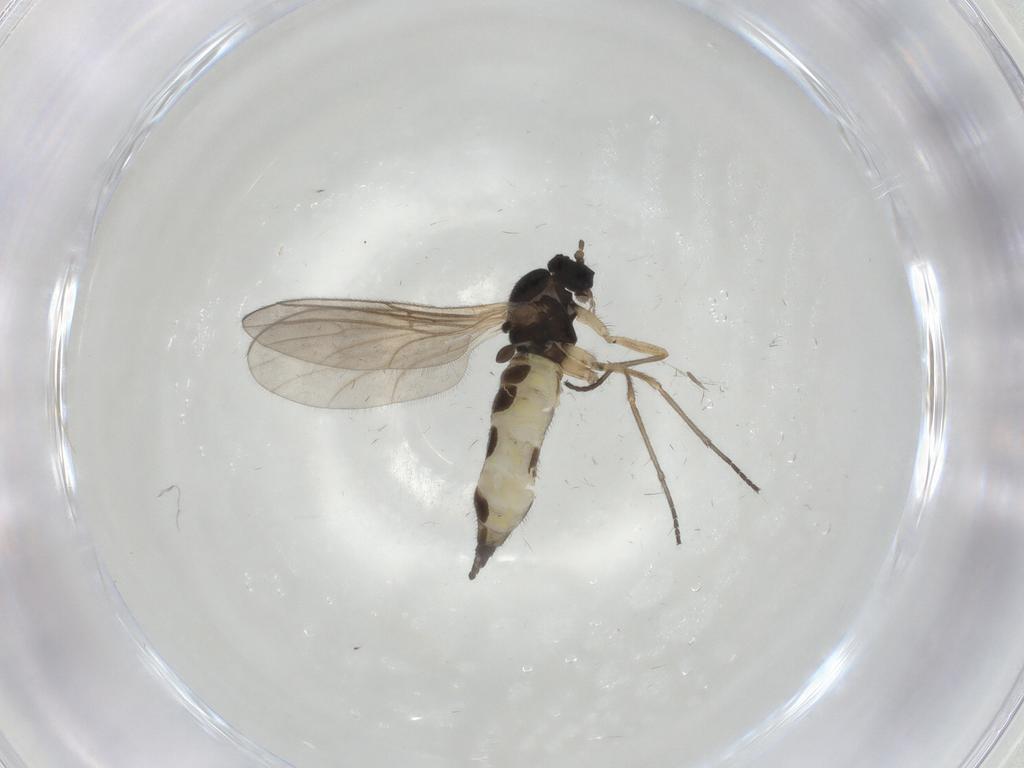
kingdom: Animalia
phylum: Arthropoda
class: Insecta
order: Diptera
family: Sciaridae
